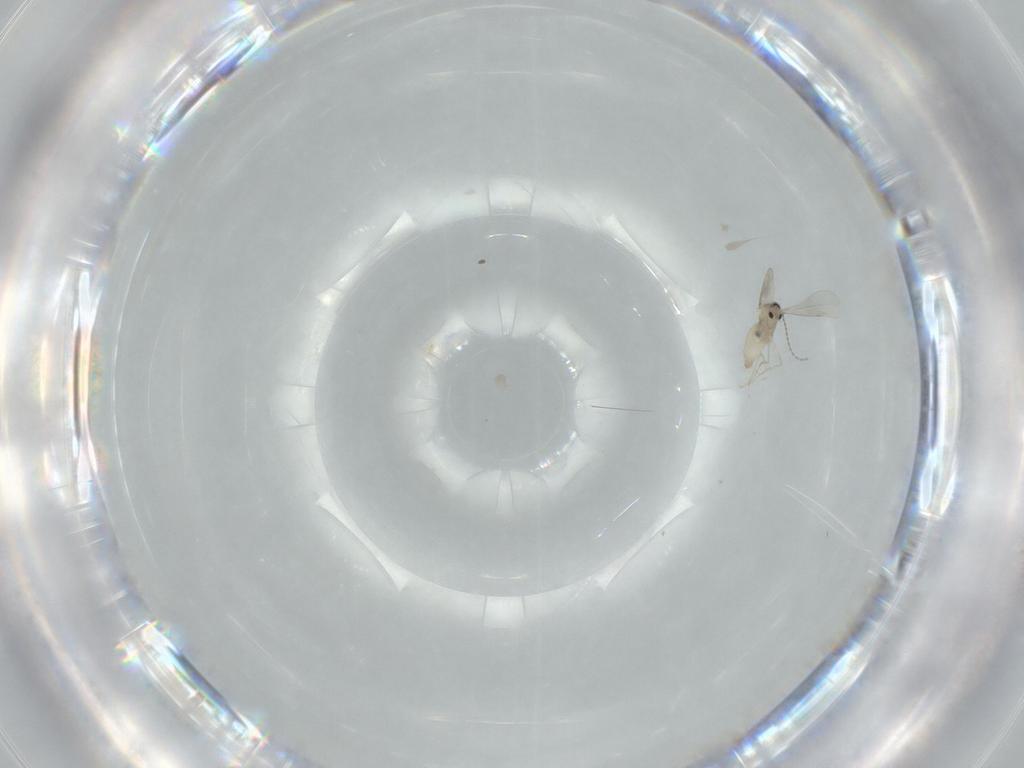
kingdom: Animalia
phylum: Arthropoda
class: Insecta
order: Diptera
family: Cecidomyiidae
